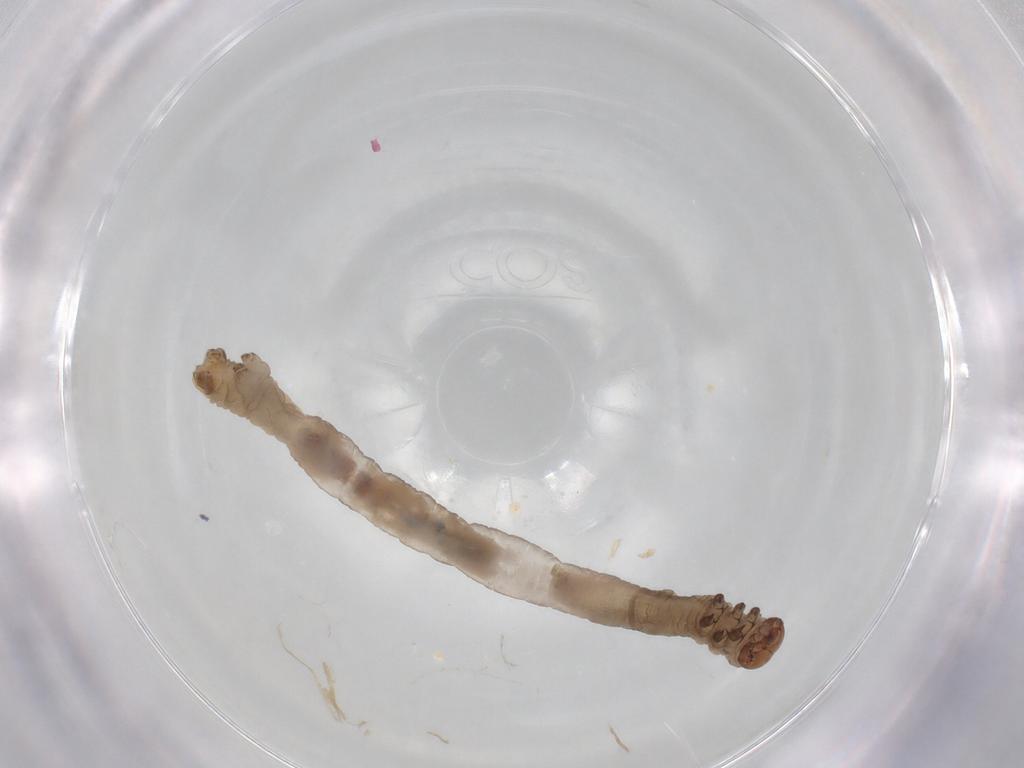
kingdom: Animalia
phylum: Arthropoda
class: Insecta
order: Lepidoptera
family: Geometridae
